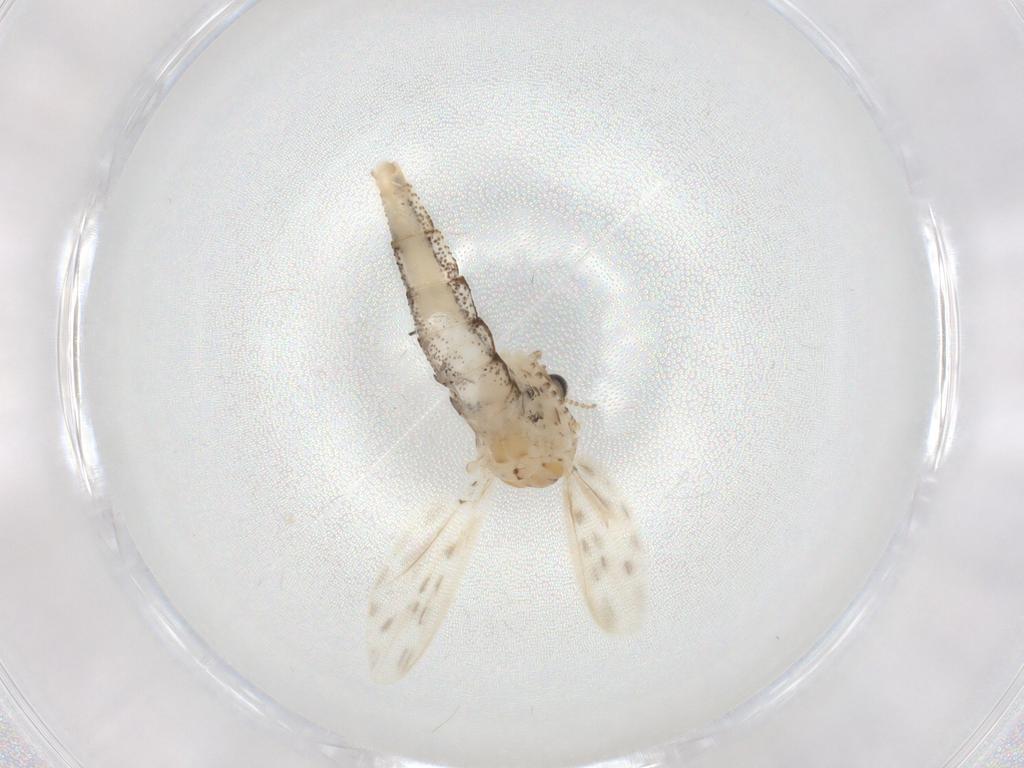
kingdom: Animalia
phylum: Arthropoda
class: Insecta
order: Diptera
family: Chaoboridae
